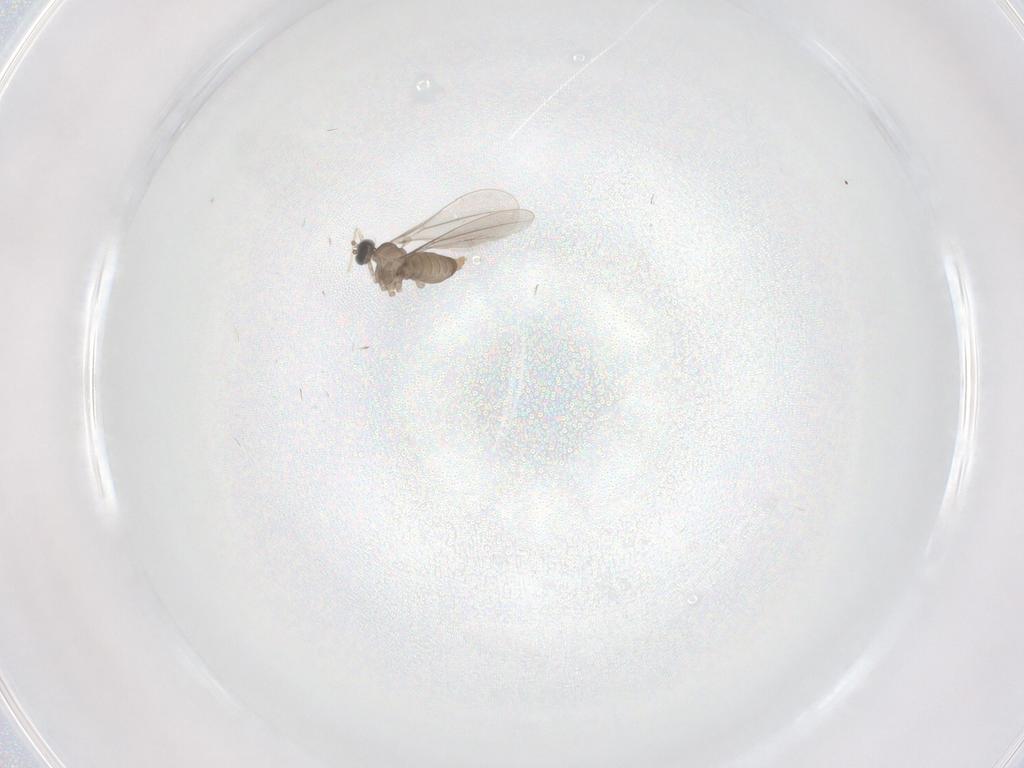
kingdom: Animalia
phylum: Arthropoda
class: Insecta
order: Diptera
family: Cecidomyiidae
